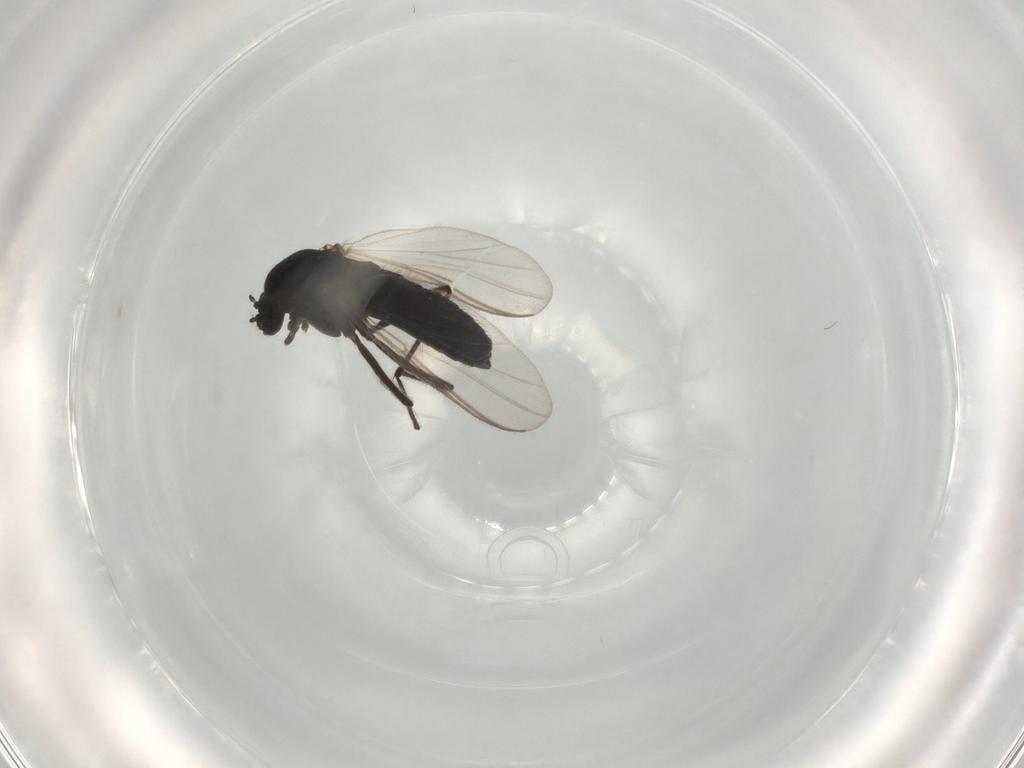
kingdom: Animalia
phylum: Arthropoda
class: Insecta
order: Diptera
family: Chironomidae
